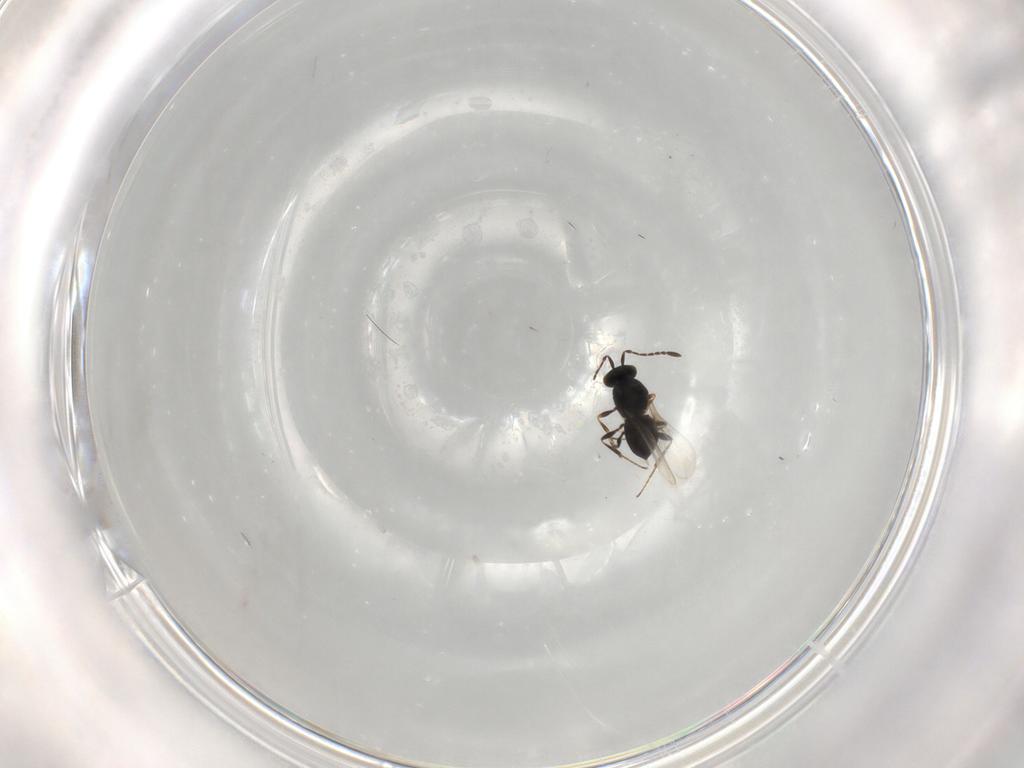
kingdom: Animalia
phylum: Arthropoda
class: Insecta
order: Hymenoptera
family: Platygastridae
